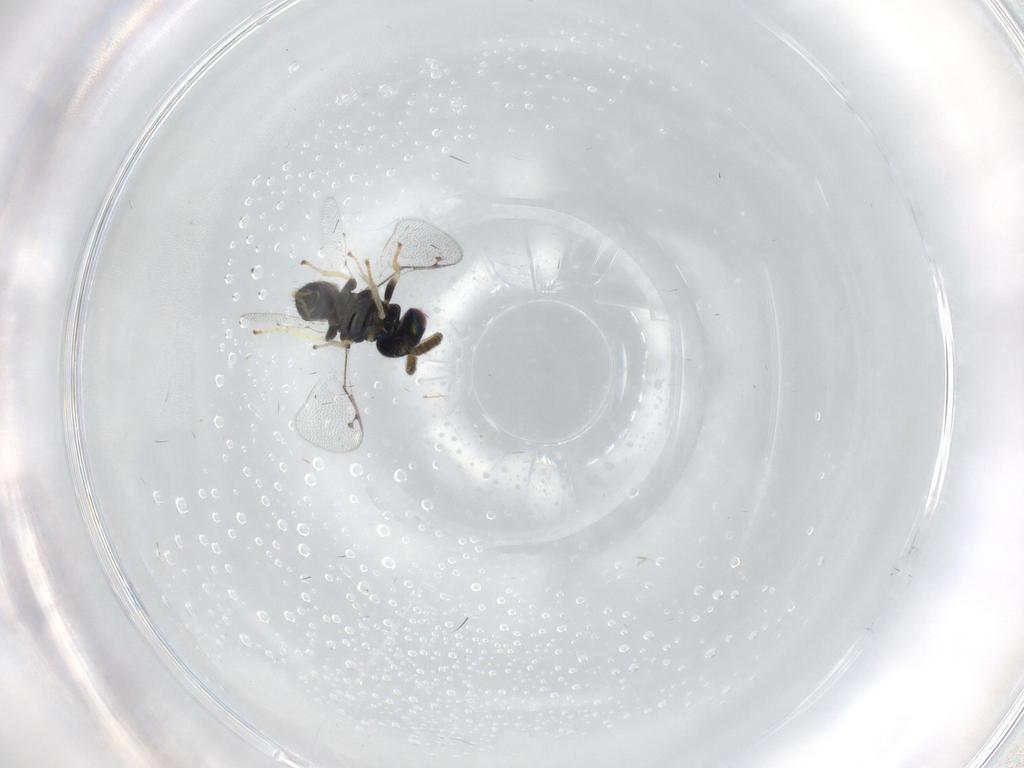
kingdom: Animalia
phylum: Arthropoda
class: Insecta
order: Hymenoptera
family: Pirenidae
